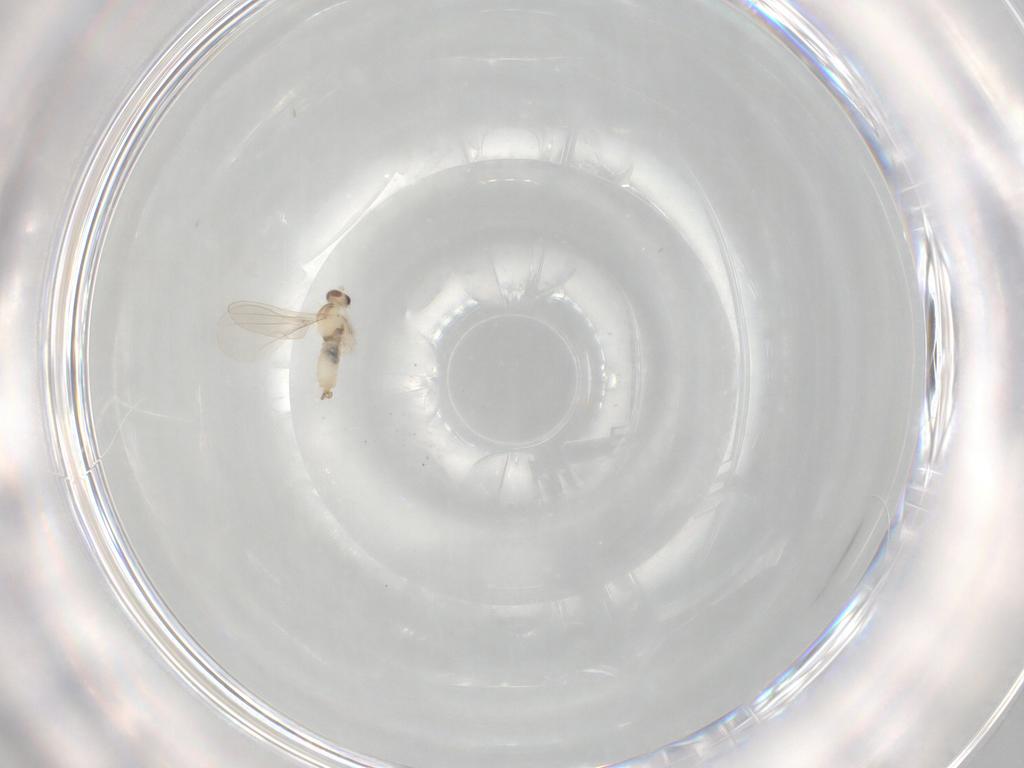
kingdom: Animalia
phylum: Arthropoda
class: Insecta
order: Diptera
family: Cecidomyiidae
